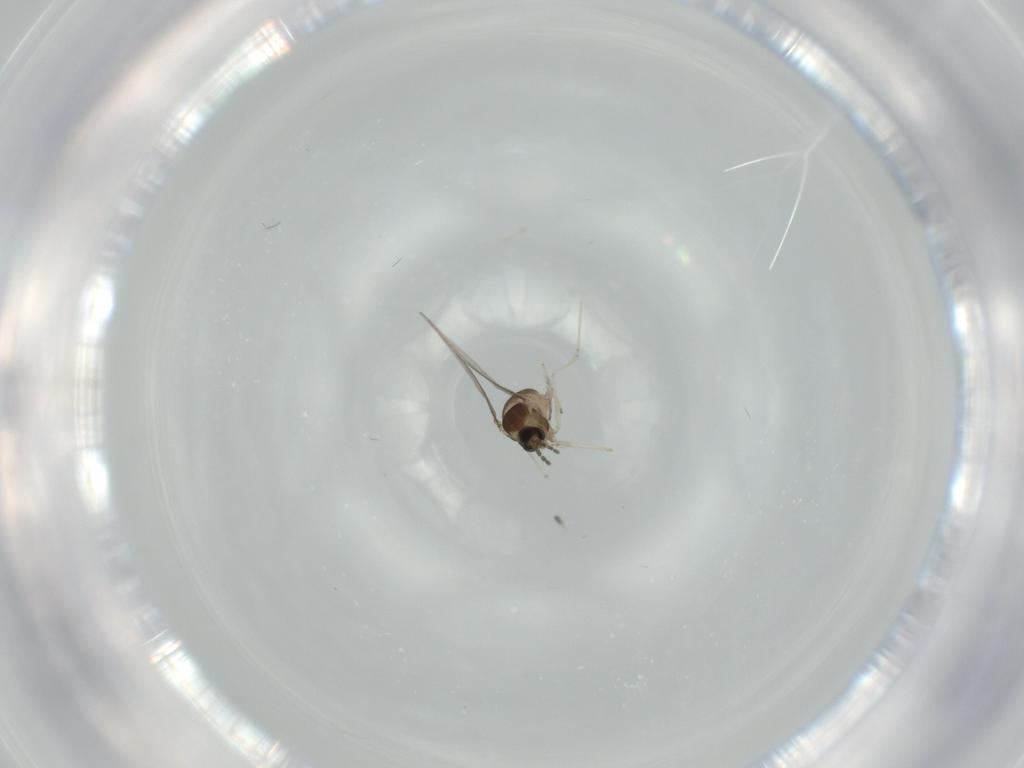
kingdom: Animalia
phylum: Arthropoda
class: Insecta
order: Diptera
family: Cecidomyiidae
